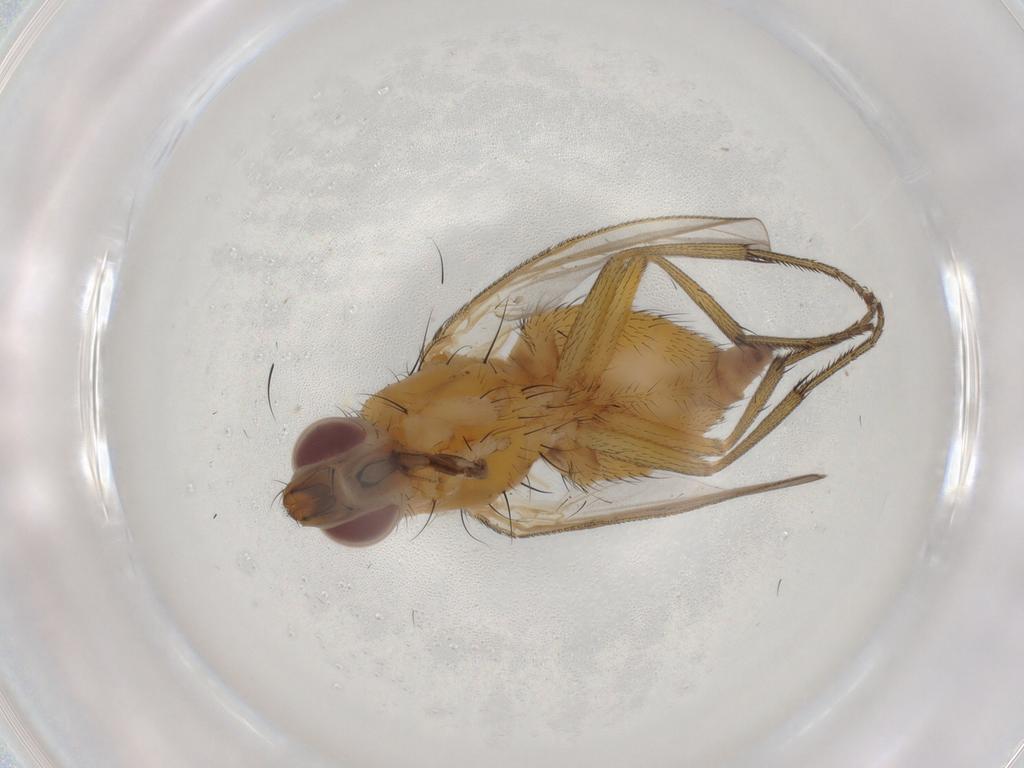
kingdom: Animalia
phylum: Arthropoda
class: Insecta
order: Diptera
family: Muscidae
